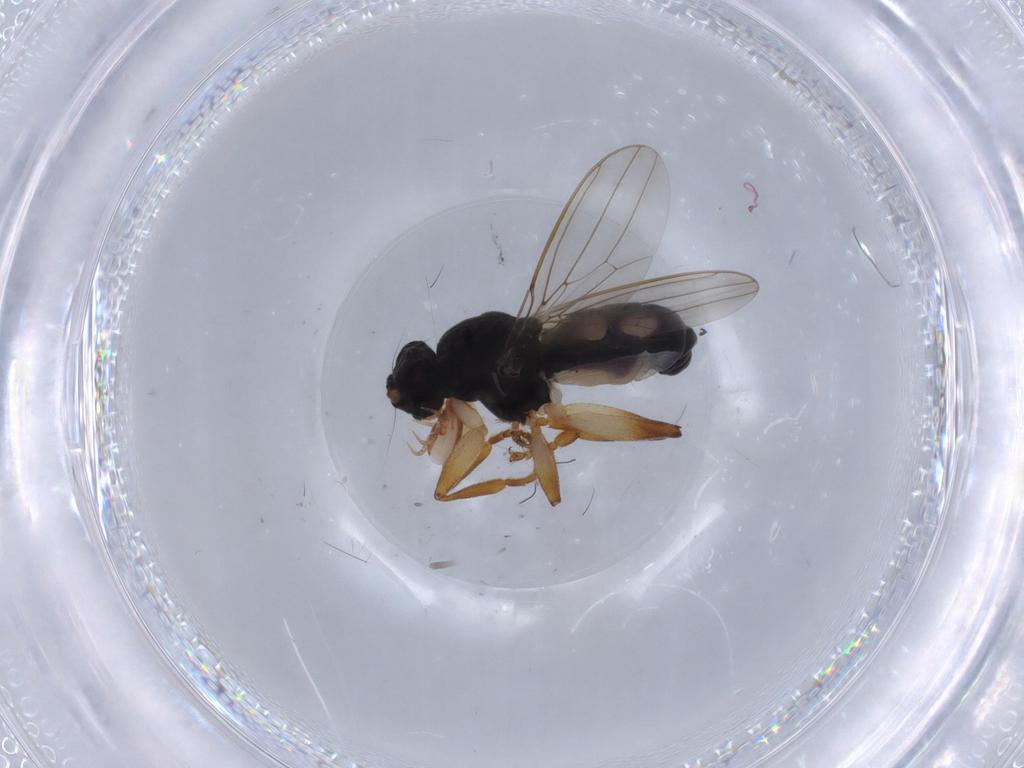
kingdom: Animalia
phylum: Arthropoda
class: Insecta
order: Diptera
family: Sphaeroceridae
